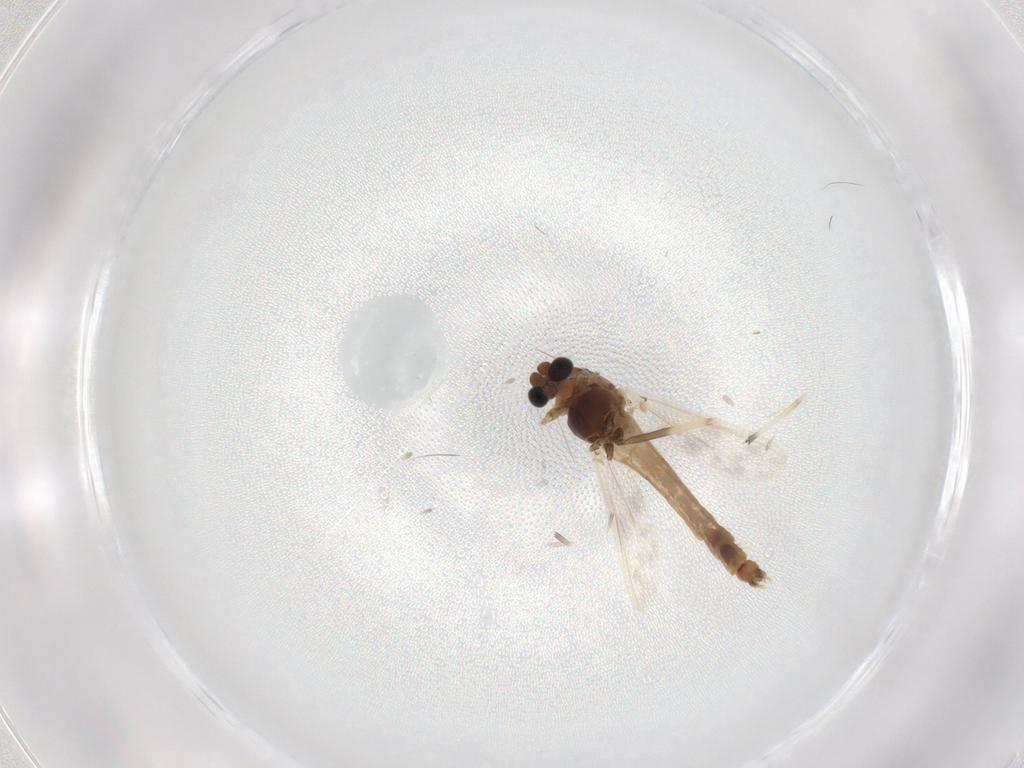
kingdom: Animalia
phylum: Arthropoda
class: Insecta
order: Diptera
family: Chironomidae
